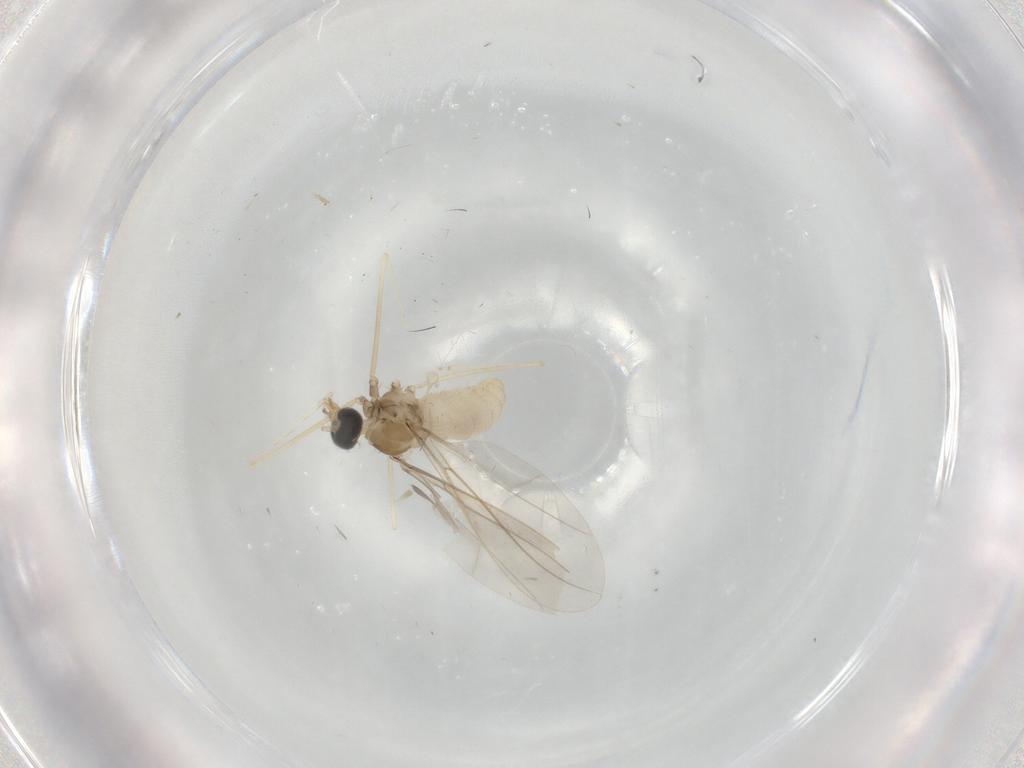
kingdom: Animalia
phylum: Arthropoda
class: Insecta
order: Diptera
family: Cecidomyiidae
